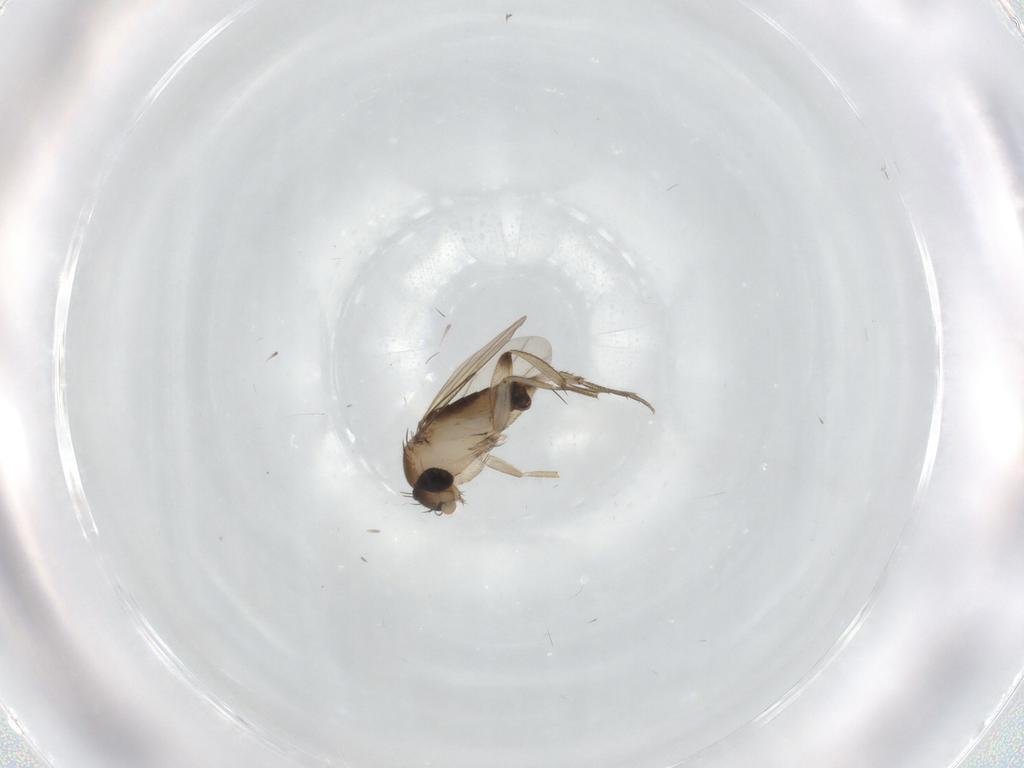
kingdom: Animalia
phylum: Arthropoda
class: Insecta
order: Diptera
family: Phoridae
